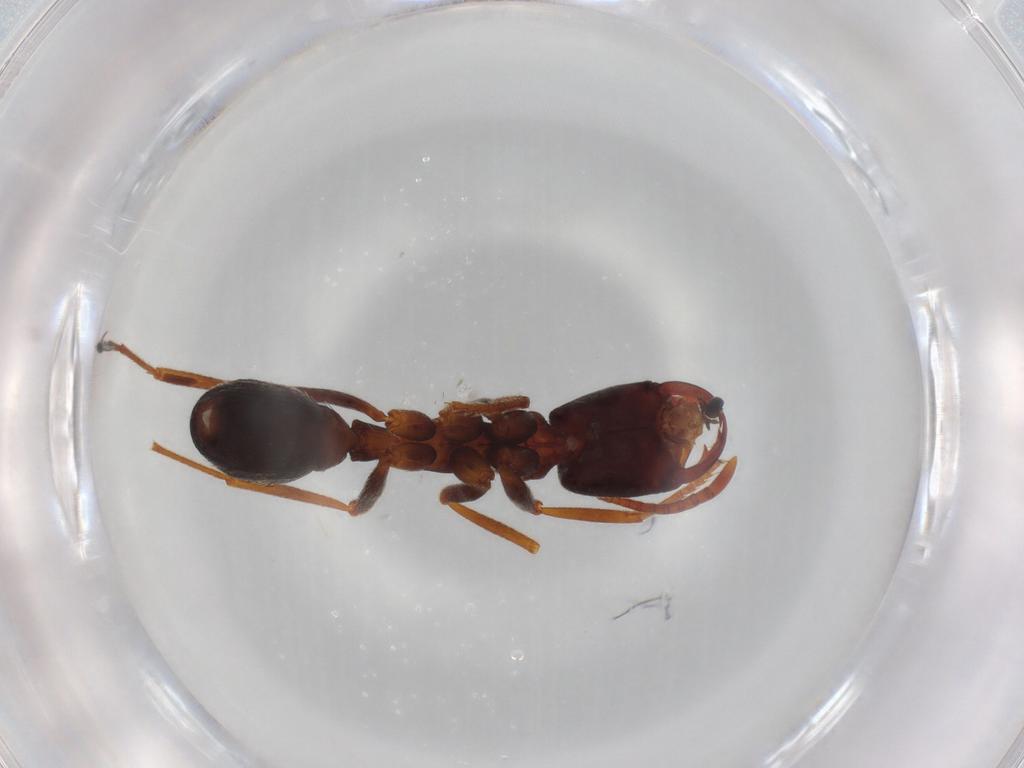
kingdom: Animalia
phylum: Arthropoda
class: Insecta
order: Hymenoptera
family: Formicidae
